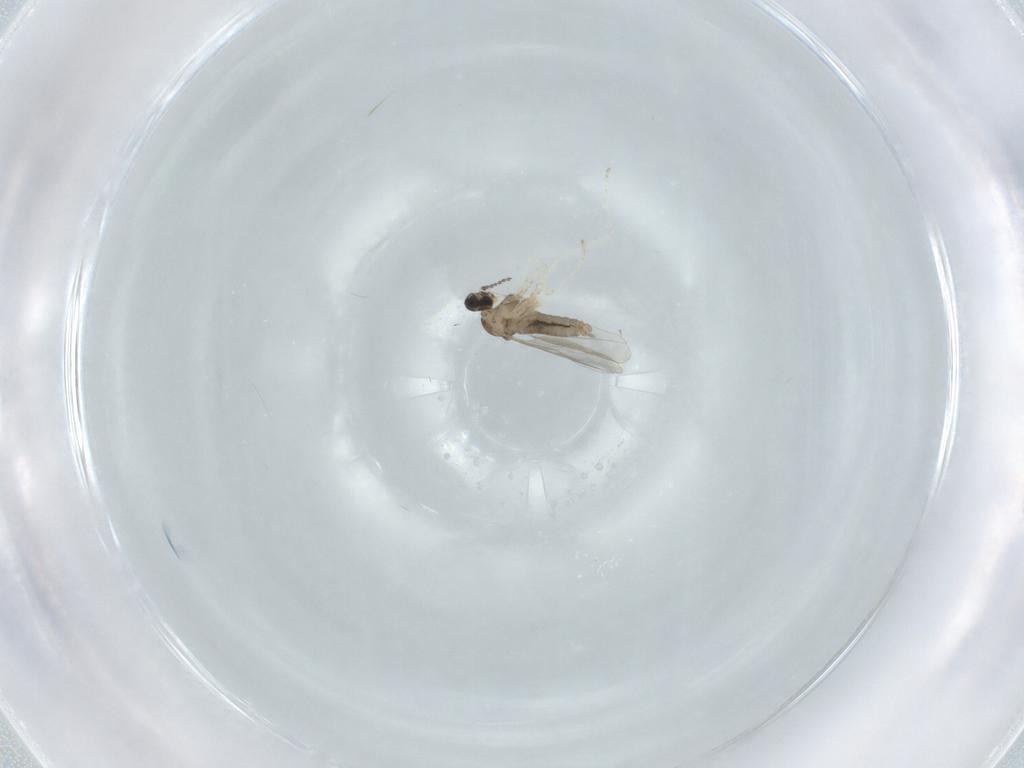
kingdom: Animalia
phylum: Arthropoda
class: Insecta
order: Diptera
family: Cecidomyiidae
